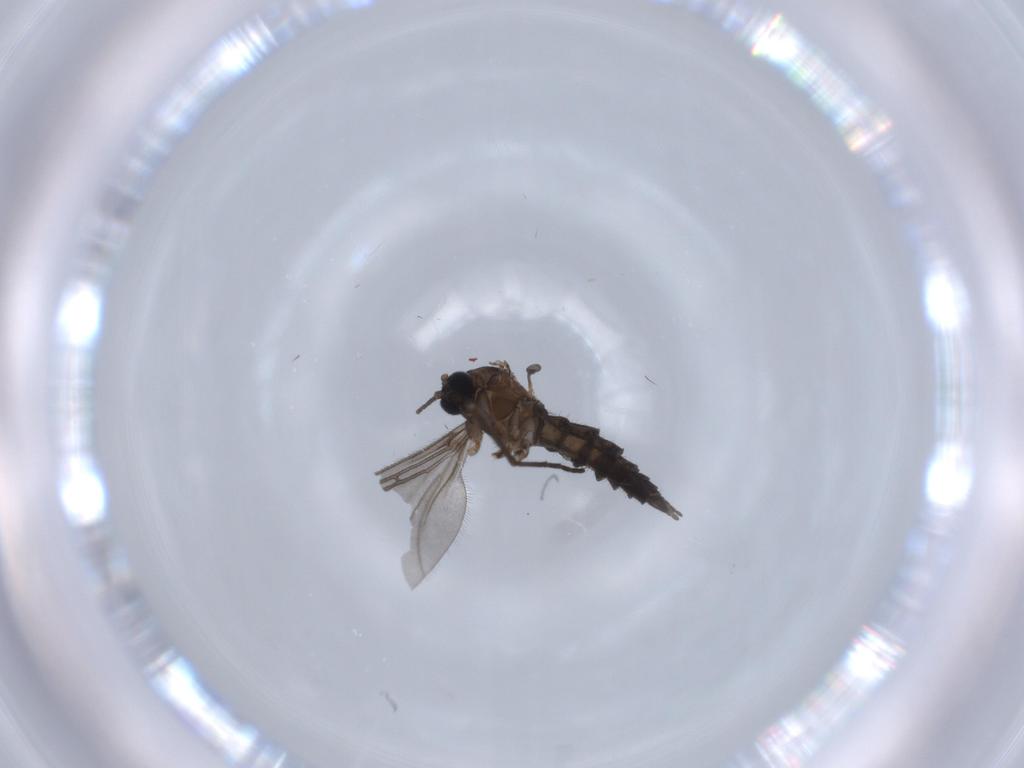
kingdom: Animalia
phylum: Arthropoda
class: Insecta
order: Diptera
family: Sciaridae
